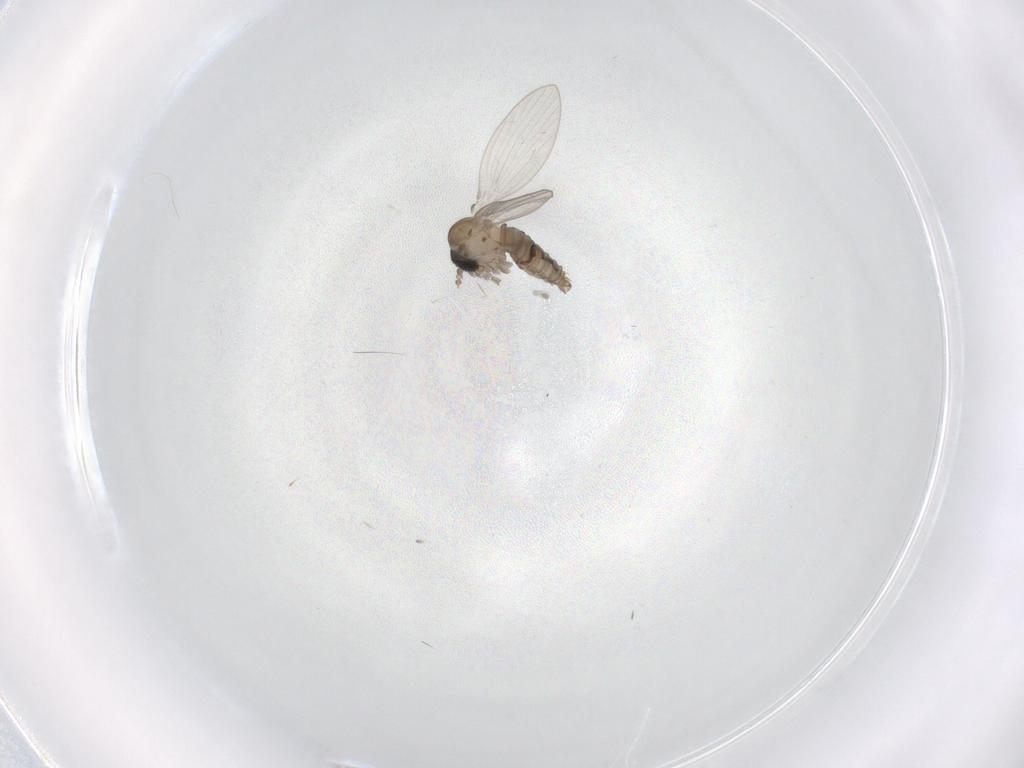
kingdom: Animalia
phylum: Arthropoda
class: Insecta
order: Diptera
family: Psychodidae
